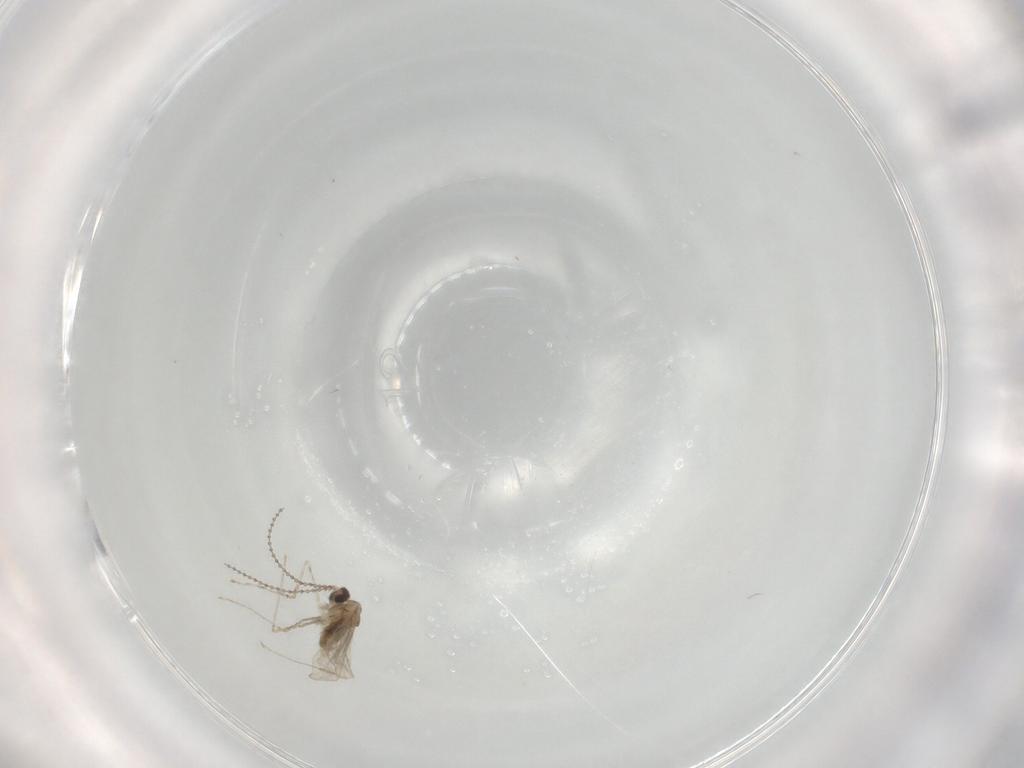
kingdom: Animalia
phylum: Arthropoda
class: Insecta
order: Diptera
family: Cecidomyiidae
